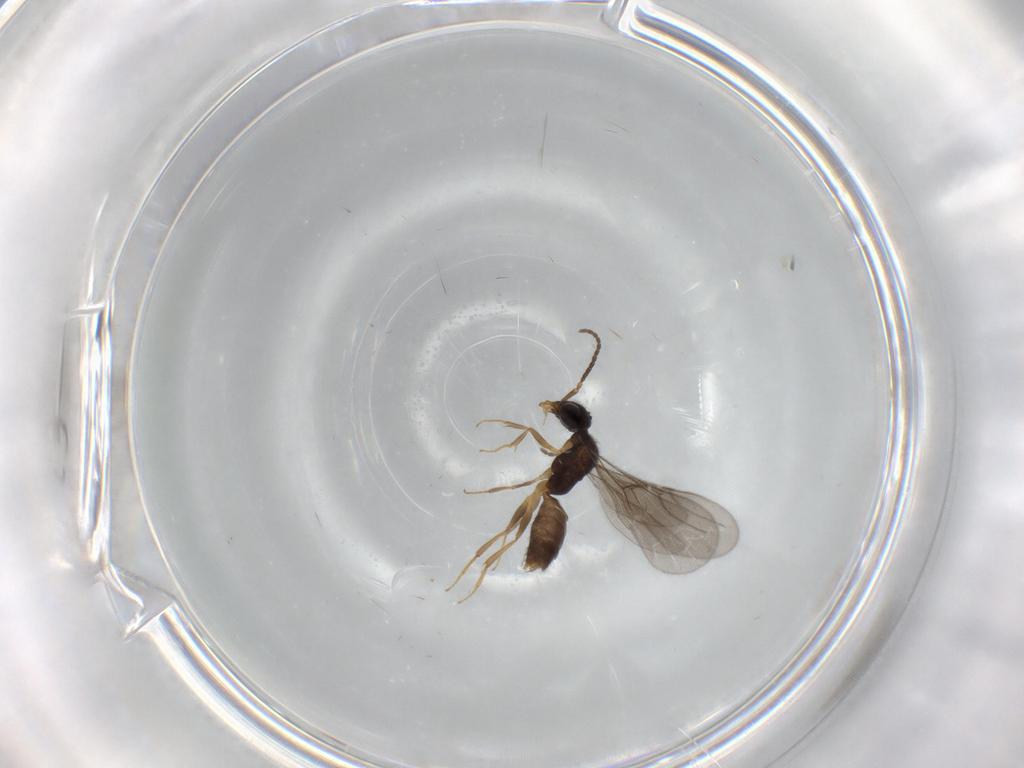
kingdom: Animalia
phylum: Arthropoda
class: Insecta
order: Hymenoptera
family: Bethylidae
